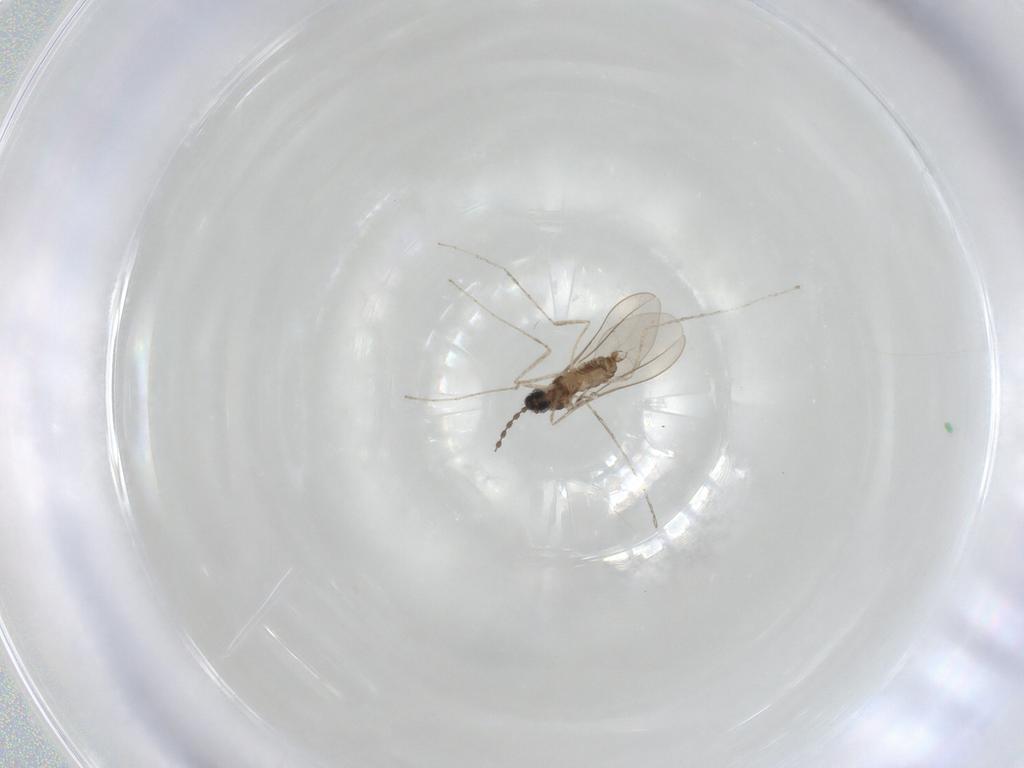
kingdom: Animalia
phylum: Arthropoda
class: Insecta
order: Diptera
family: Cecidomyiidae
